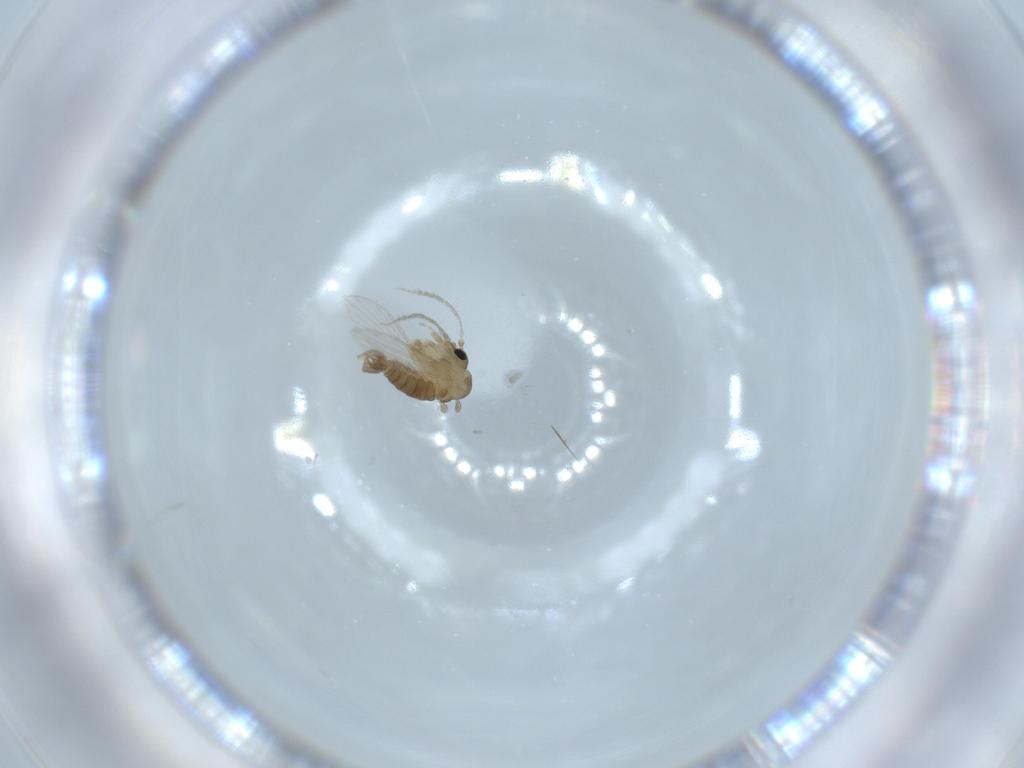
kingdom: Animalia
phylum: Arthropoda
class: Insecta
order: Diptera
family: Psychodidae
